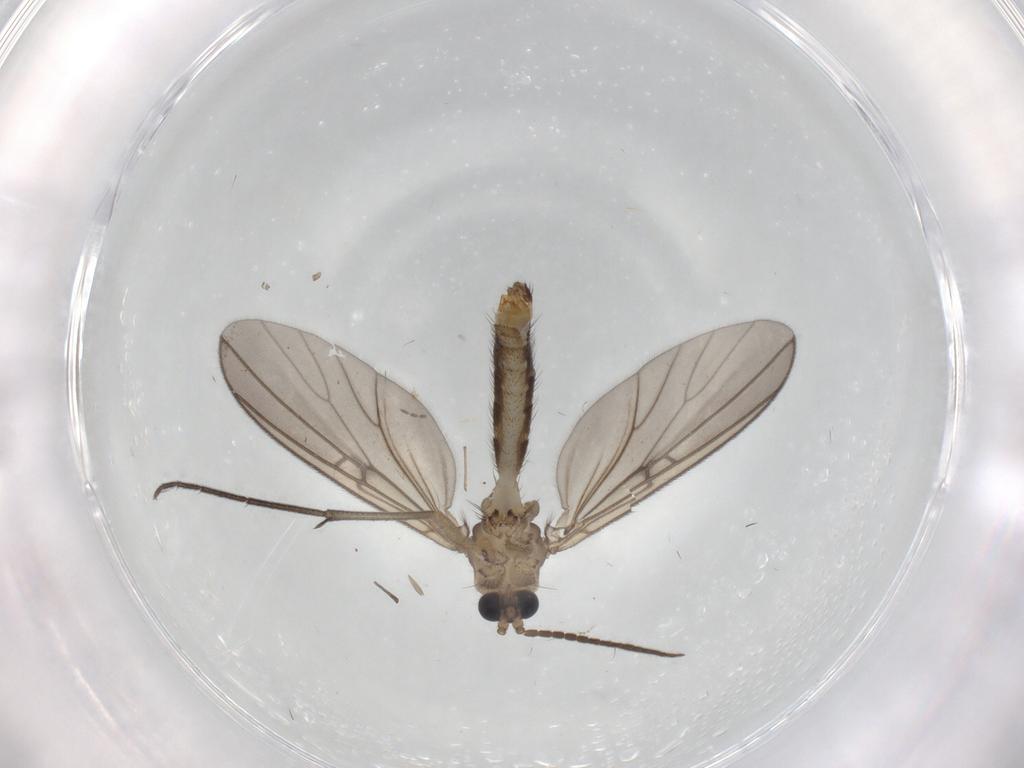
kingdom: Animalia
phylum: Arthropoda
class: Insecta
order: Diptera
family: Mycetophilidae
